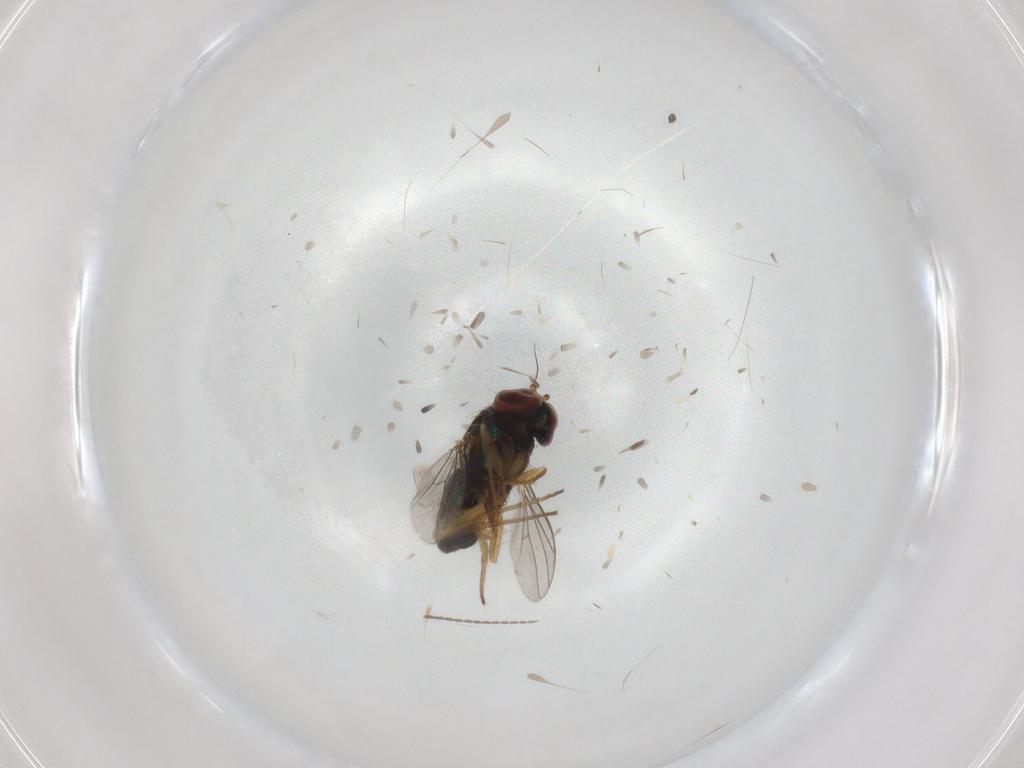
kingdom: Animalia
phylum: Arthropoda
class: Insecta
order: Diptera
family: Dolichopodidae
